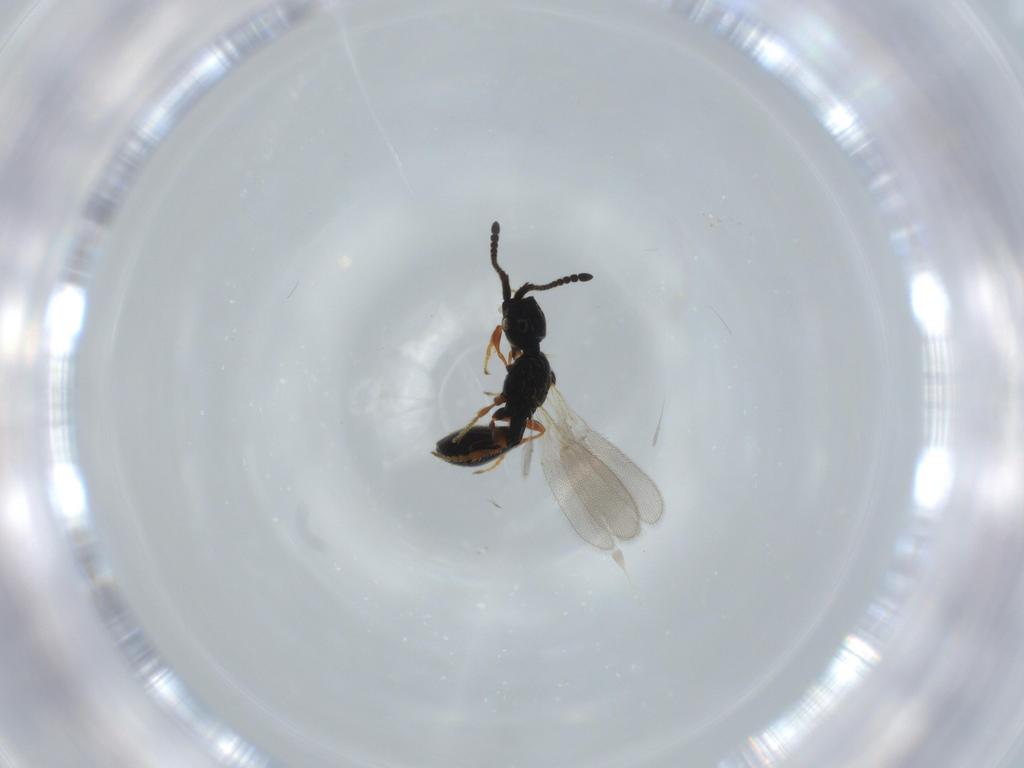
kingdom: Animalia
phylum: Arthropoda
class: Insecta
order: Hymenoptera
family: Diapriidae
